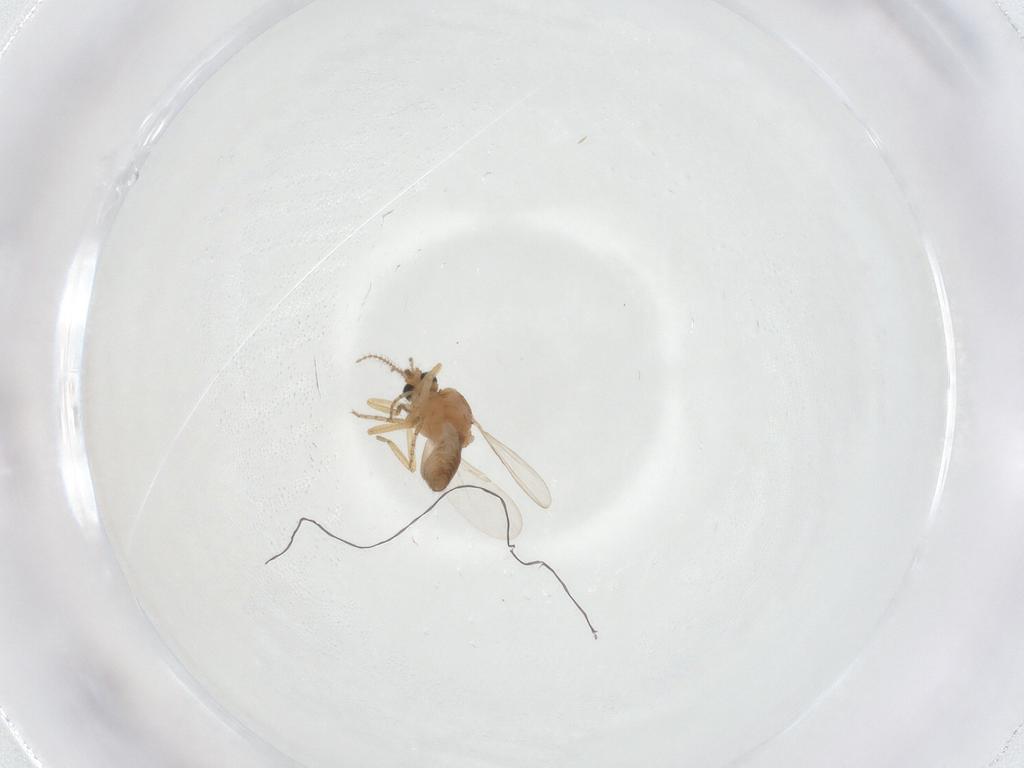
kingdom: Animalia
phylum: Arthropoda
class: Insecta
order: Diptera
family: Ceratopogonidae
